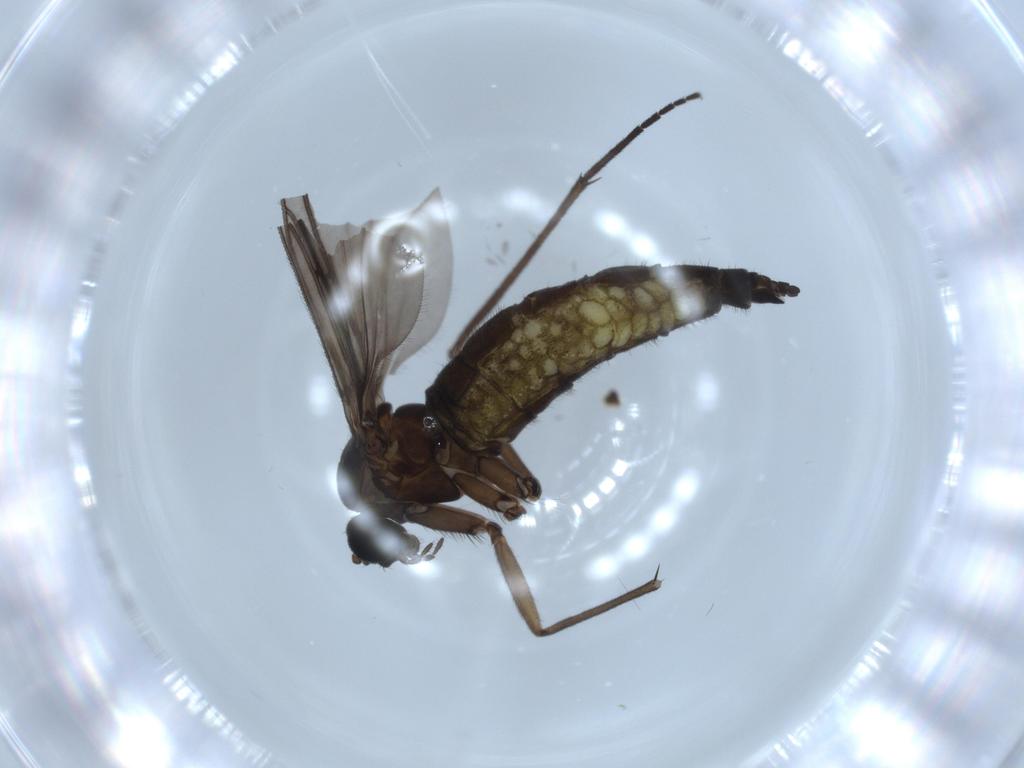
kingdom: Animalia
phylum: Arthropoda
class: Insecta
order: Diptera
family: Sciaridae
